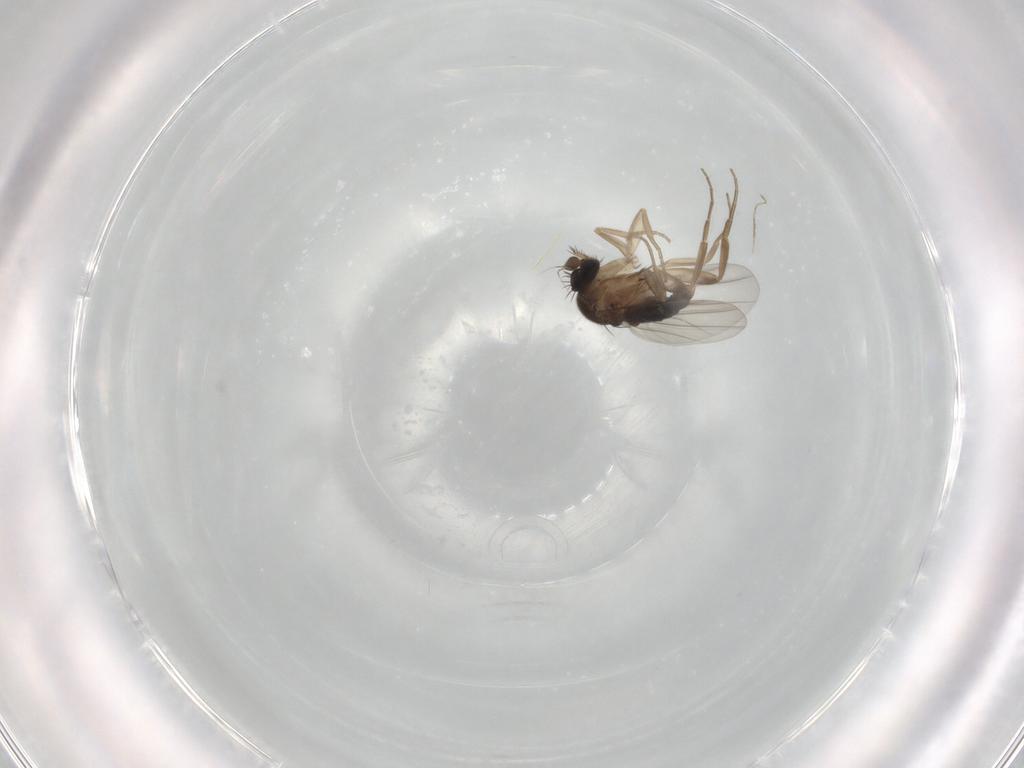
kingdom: Animalia
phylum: Arthropoda
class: Insecta
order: Diptera
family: Phoridae
